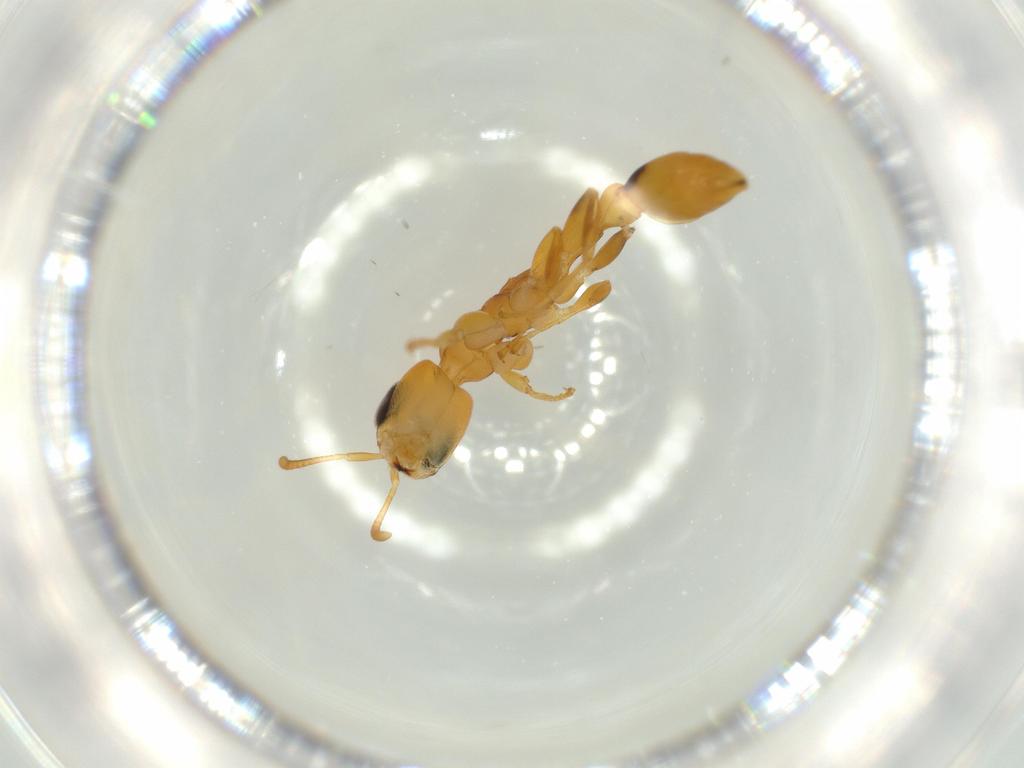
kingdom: Animalia
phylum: Arthropoda
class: Insecta
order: Hymenoptera
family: Formicidae
